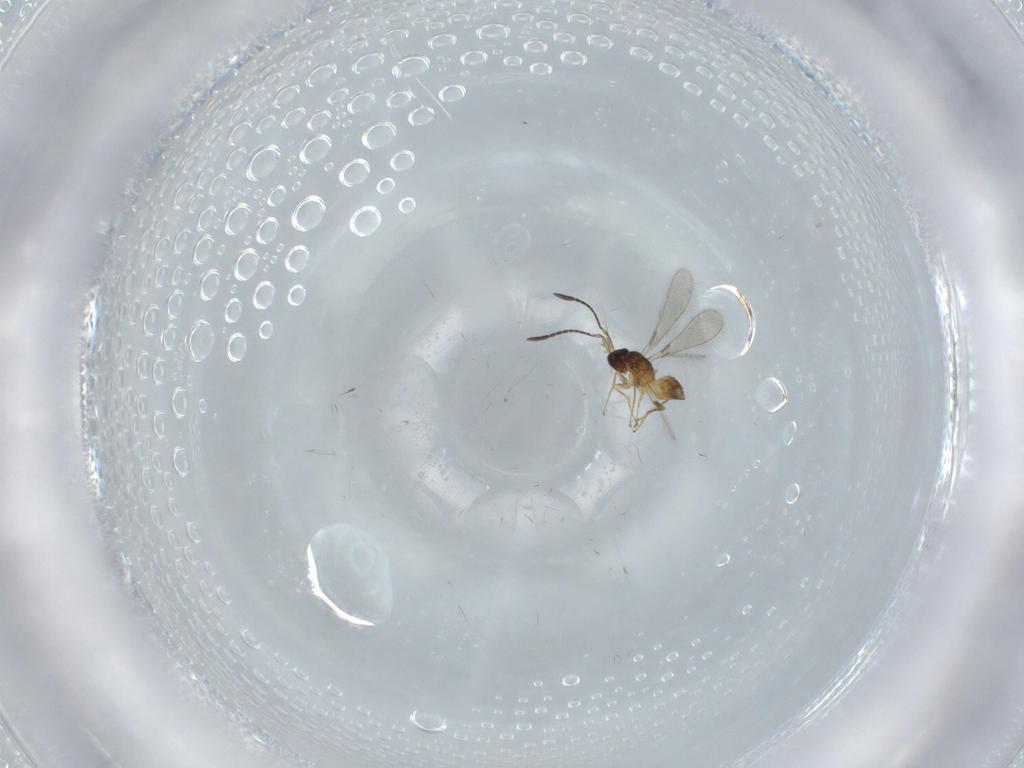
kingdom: Animalia
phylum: Arthropoda
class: Insecta
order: Hymenoptera
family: Mymaridae
